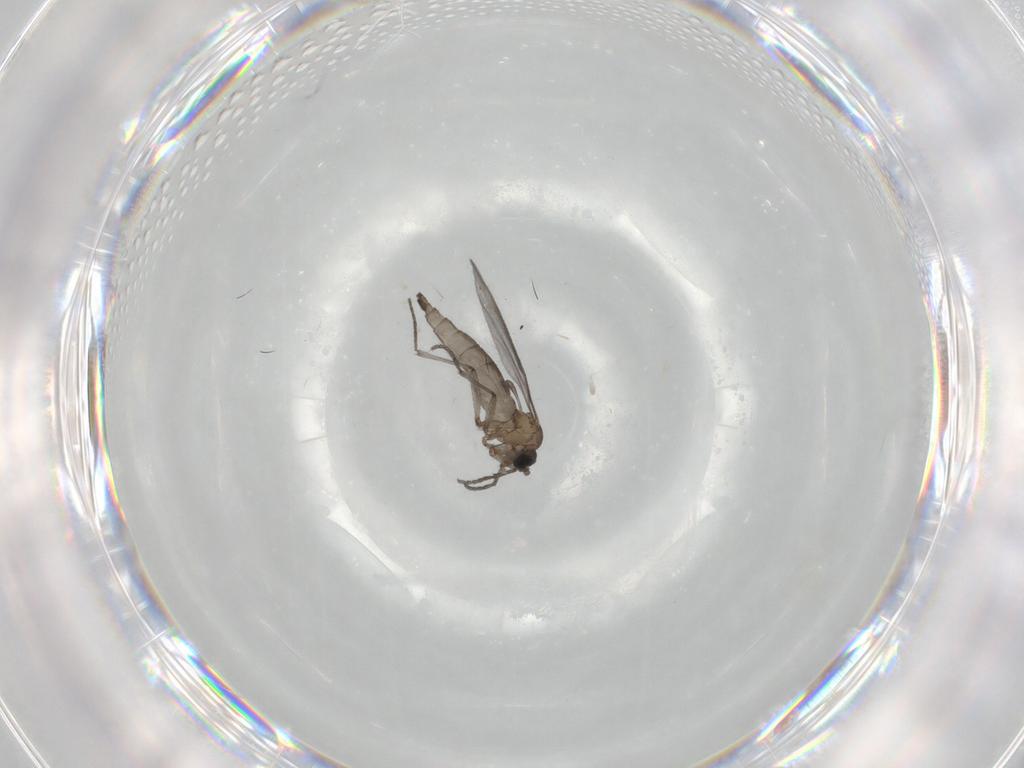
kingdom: Animalia
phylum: Arthropoda
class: Insecta
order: Diptera
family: Sciaridae
